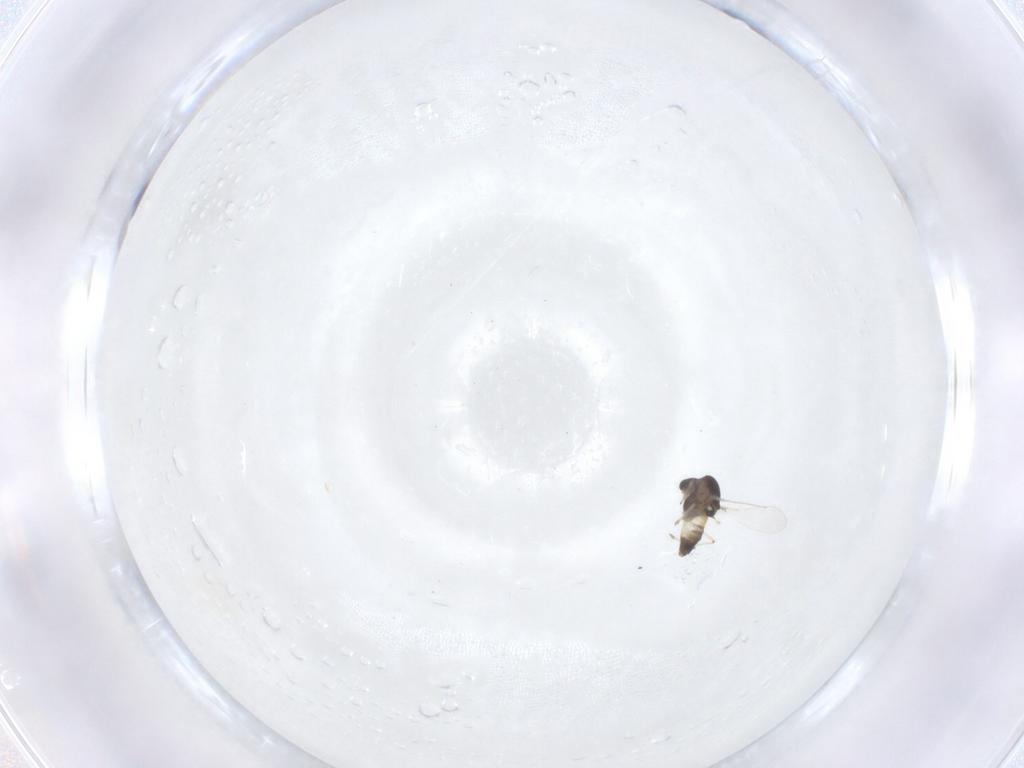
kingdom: Animalia
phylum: Arthropoda
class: Insecta
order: Diptera
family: Chironomidae
